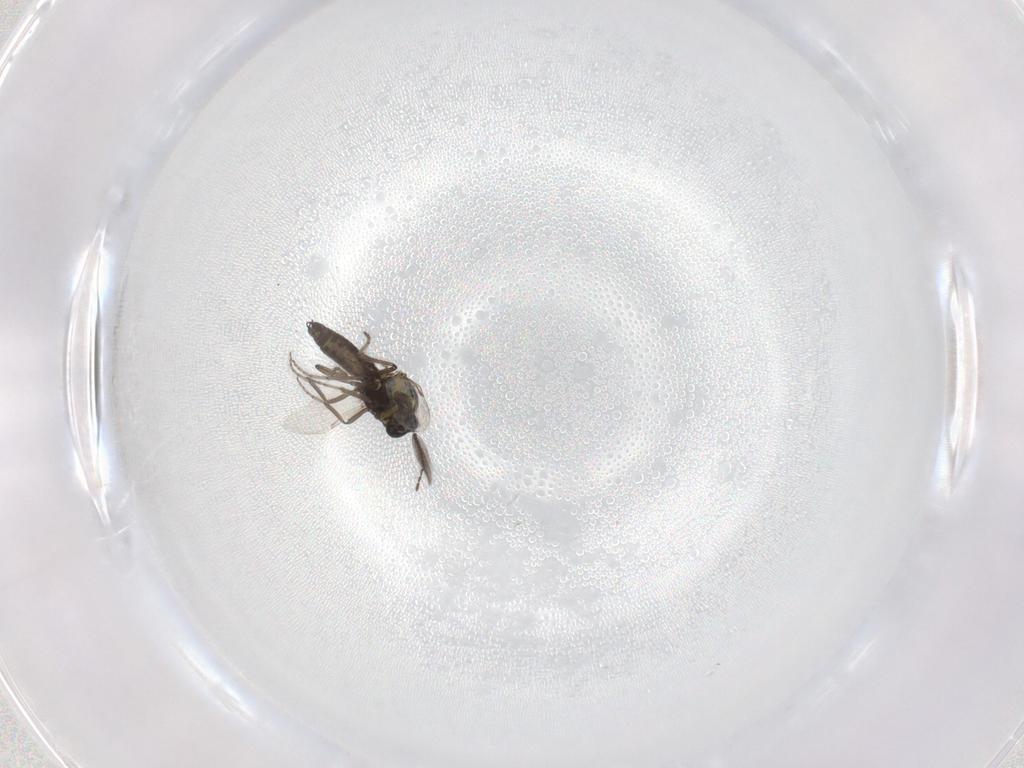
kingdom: Animalia
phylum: Arthropoda
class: Insecta
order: Diptera
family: Ceratopogonidae
